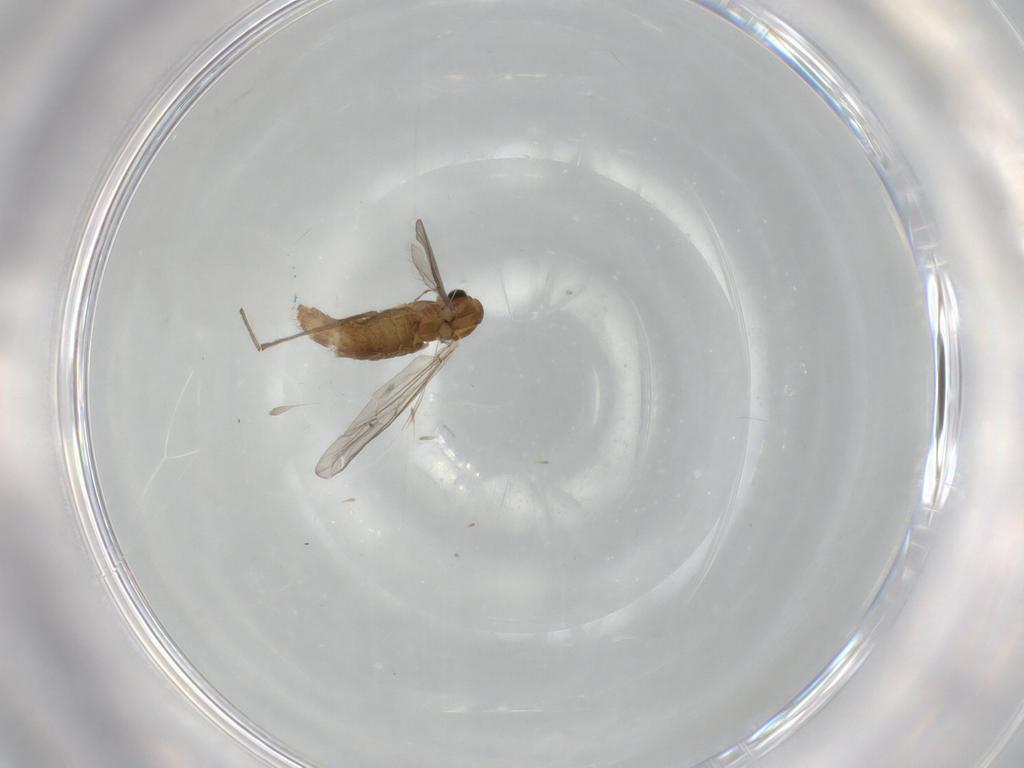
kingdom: Animalia
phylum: Arthropoda
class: Insecta
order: Diptera
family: Chironomidae
